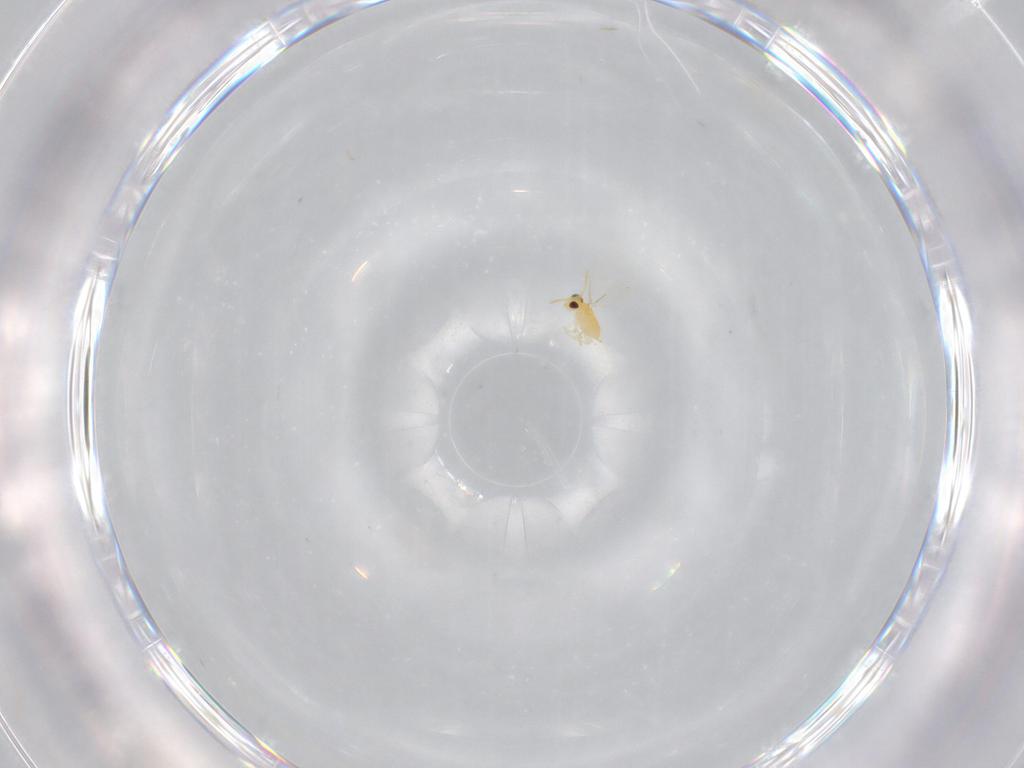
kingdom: Animalia
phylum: Arthropoda
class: Insecta
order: Hymenoptera
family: Aphelinidae
